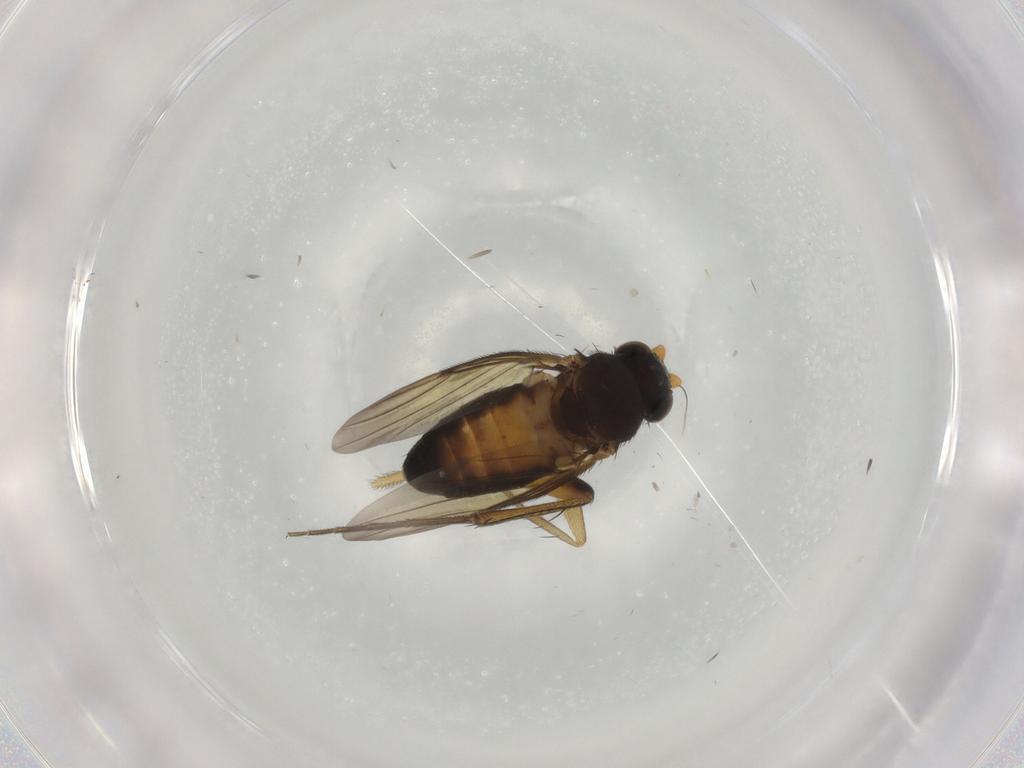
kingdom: Animalia
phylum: Arthropoda
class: Insecta
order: Diptera
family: Phoridae
